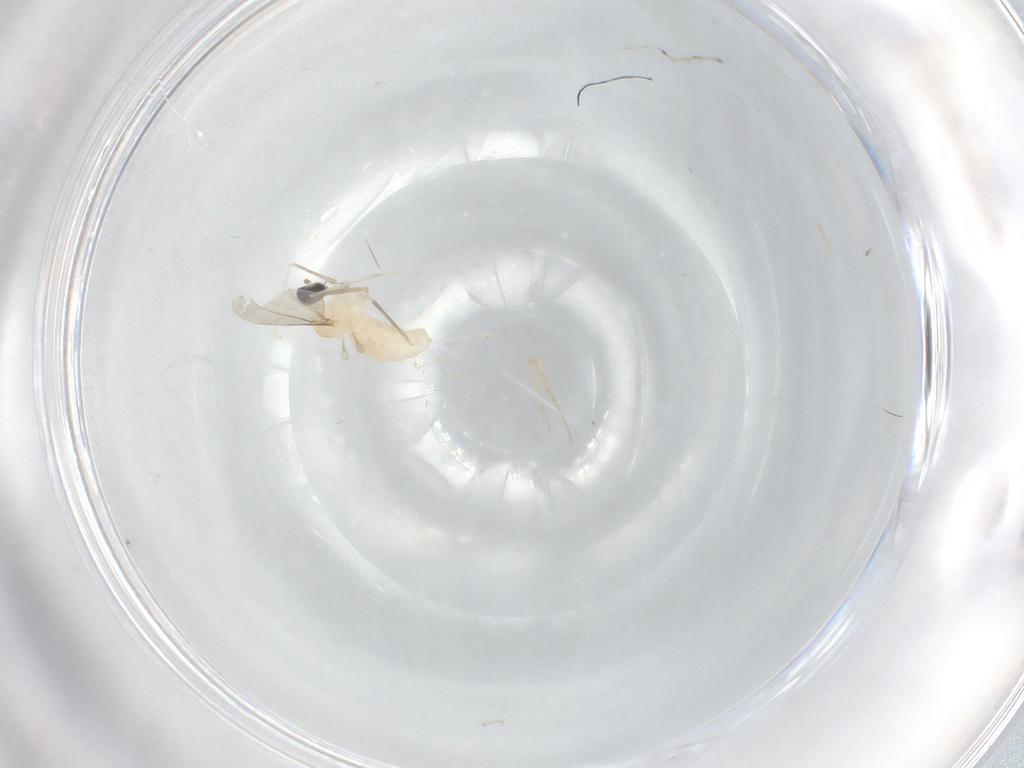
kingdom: Animalia
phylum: Arthropoda
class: Insecta
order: Diptera
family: Cecidomyiidae
